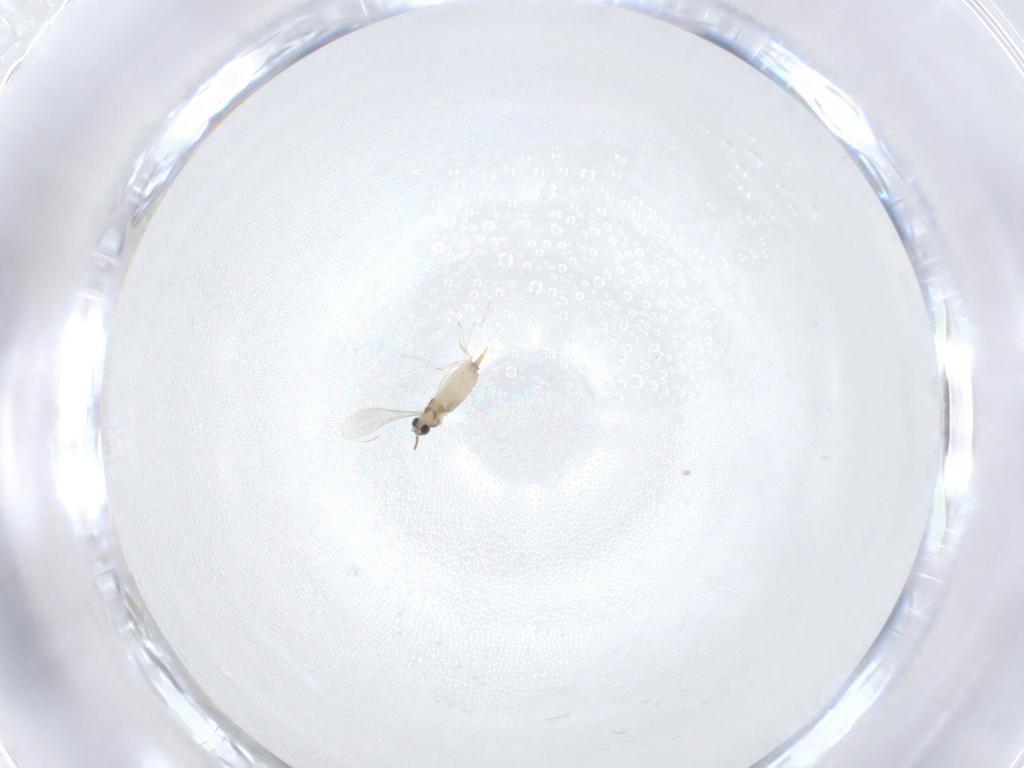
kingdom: Animalia
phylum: Arthropoda
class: Insecta
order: Diptera
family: Cecidomyiidae
